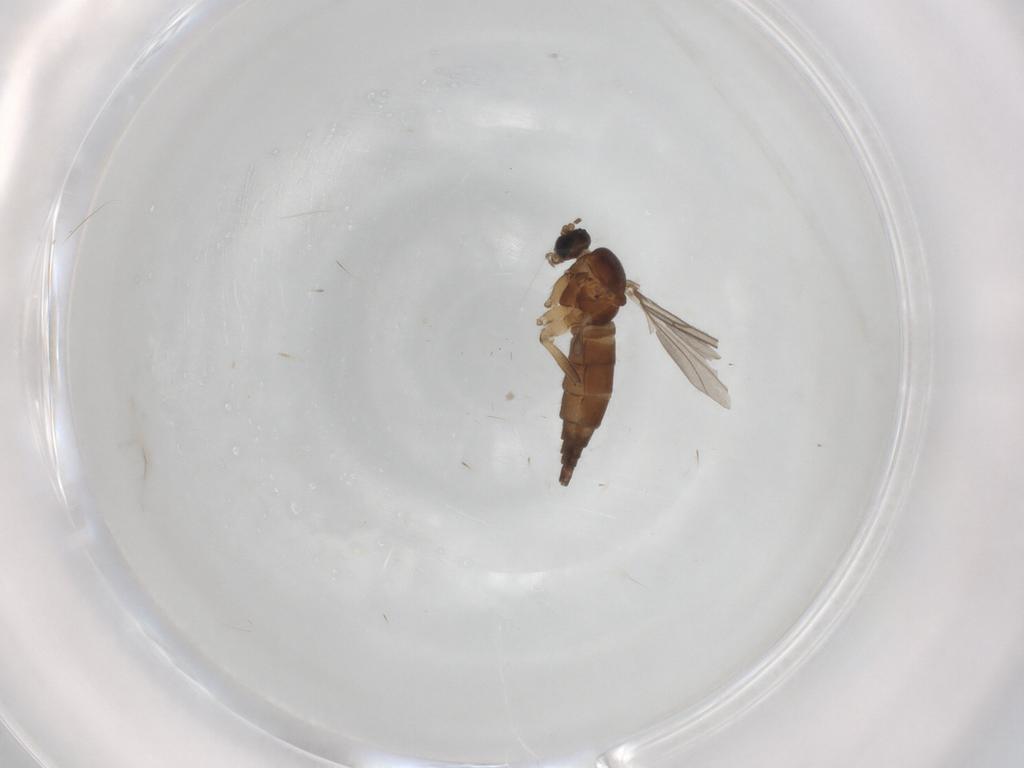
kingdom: Animalia
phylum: Arthropoda
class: Insecta
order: Diptera
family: Sciaridae
